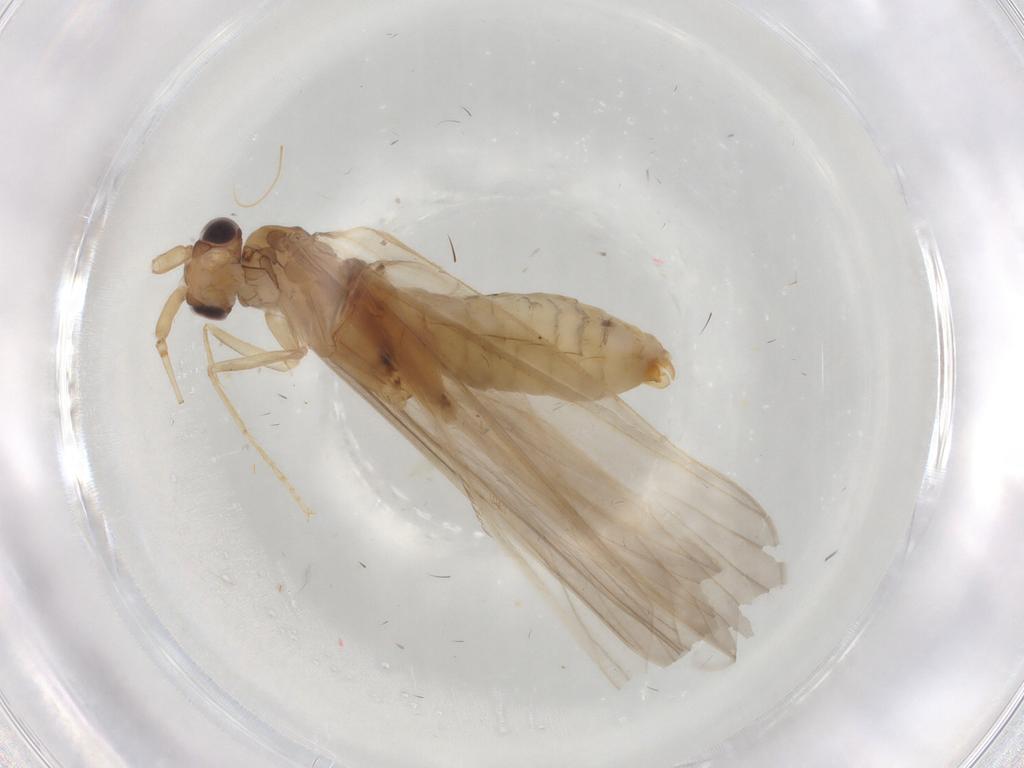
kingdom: Animalia
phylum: Arthropoda
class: Insecta
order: Trichoptera
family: Leptoceridae
